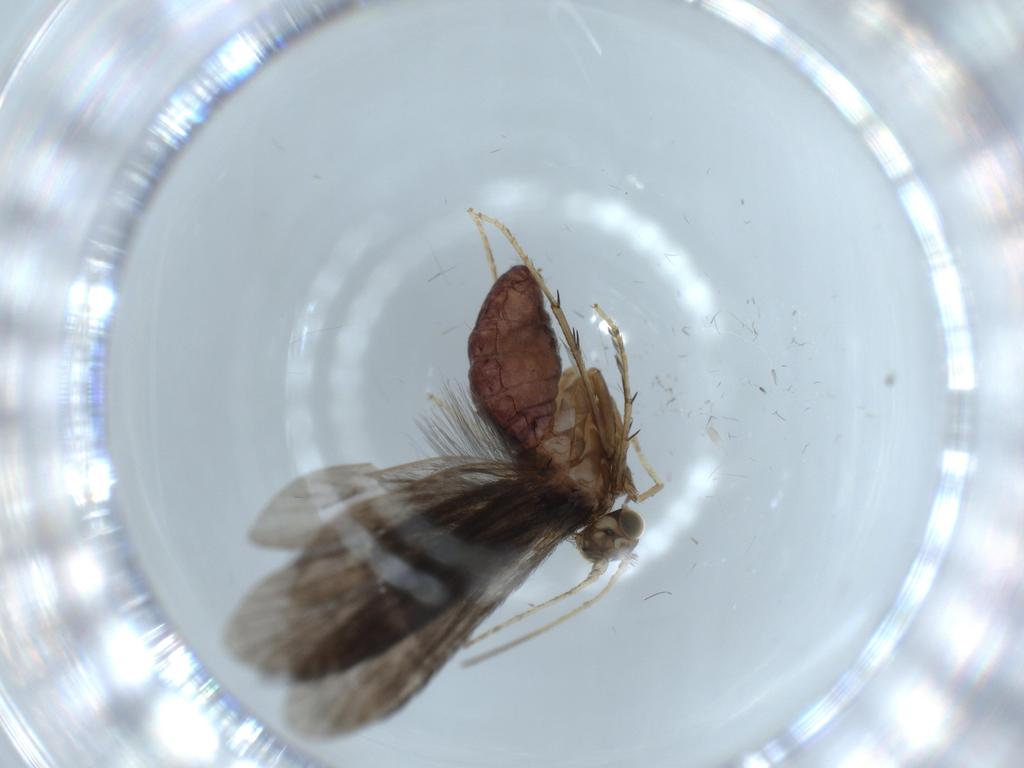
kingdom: Animalia
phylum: Arthropoda
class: Insecta
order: Trichoptera
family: Glossosomatidae
